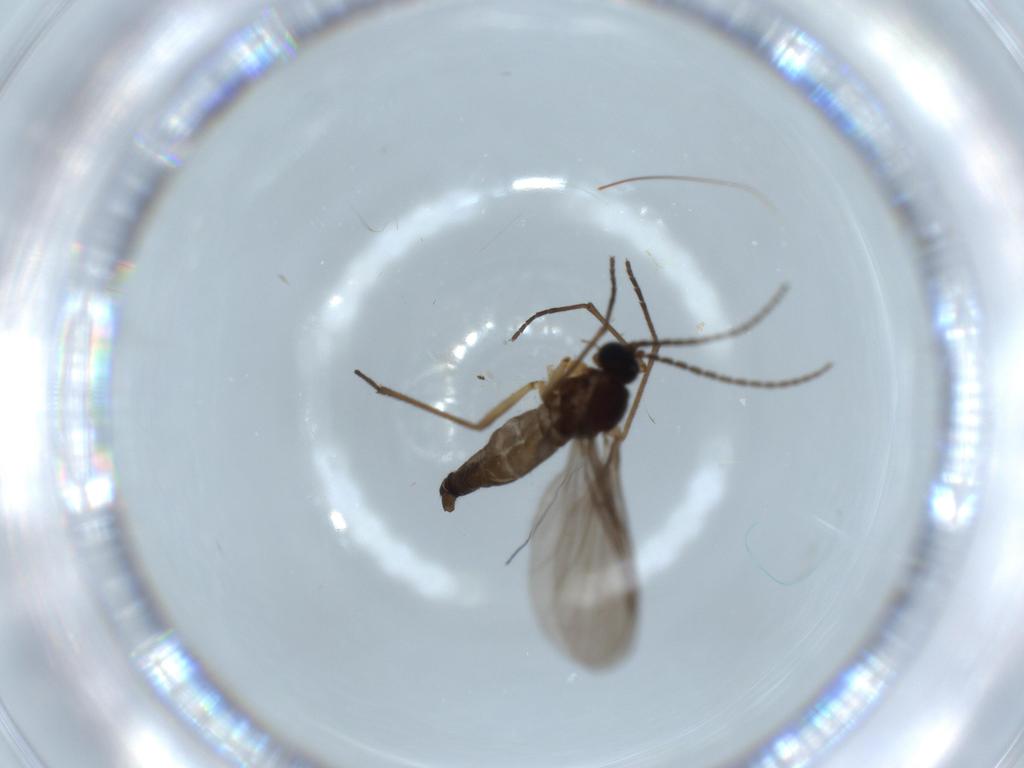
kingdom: Animalia
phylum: Arthropoda
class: Insecta
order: Diptera
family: Sciaridae
